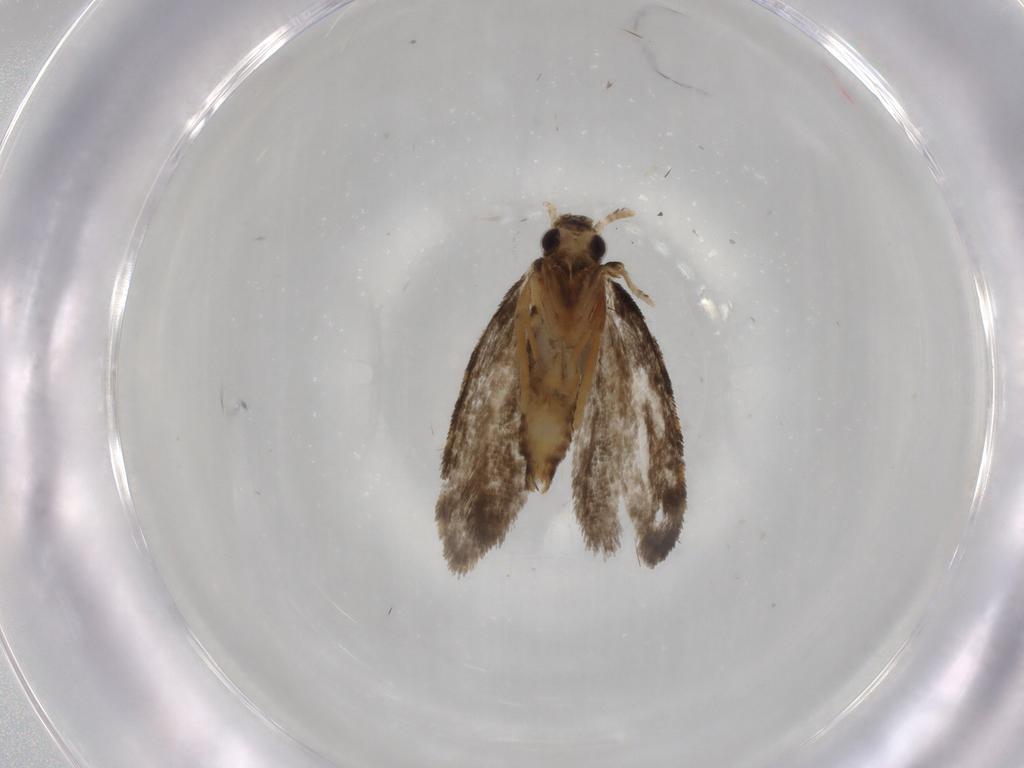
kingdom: Animalia
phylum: Arthropoda
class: Insecta
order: Lepidoptera
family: Psychidae
